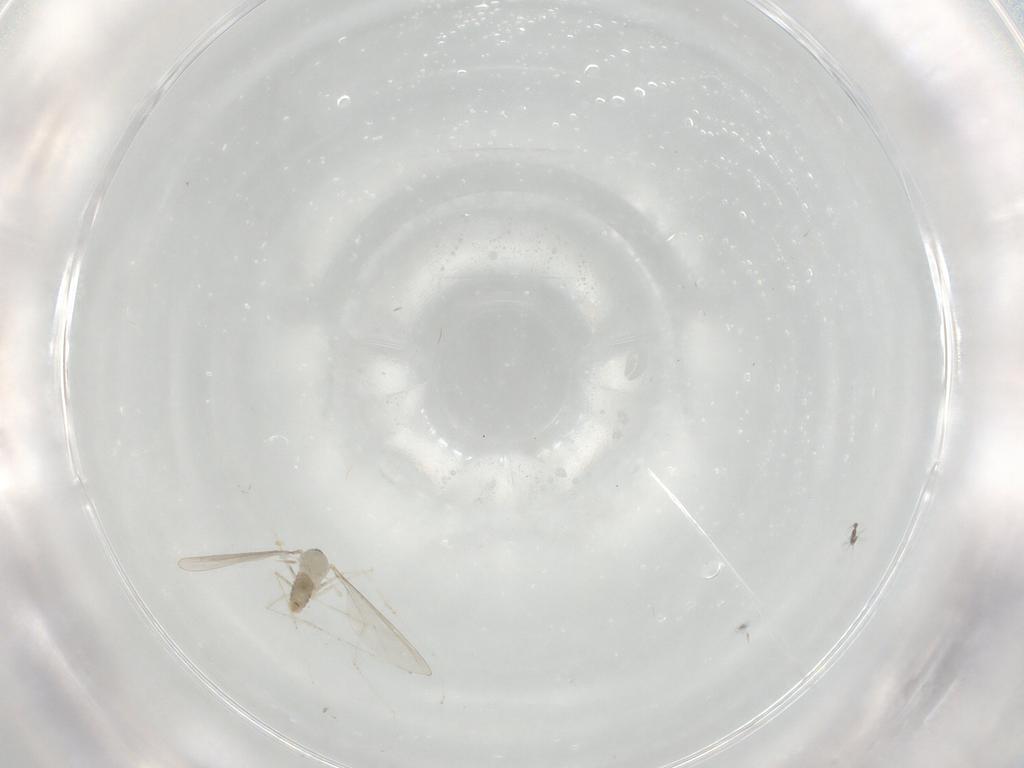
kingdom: Animalia
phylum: Arthropoda
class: Insecta
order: Diptera
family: Cecidomyiidae
